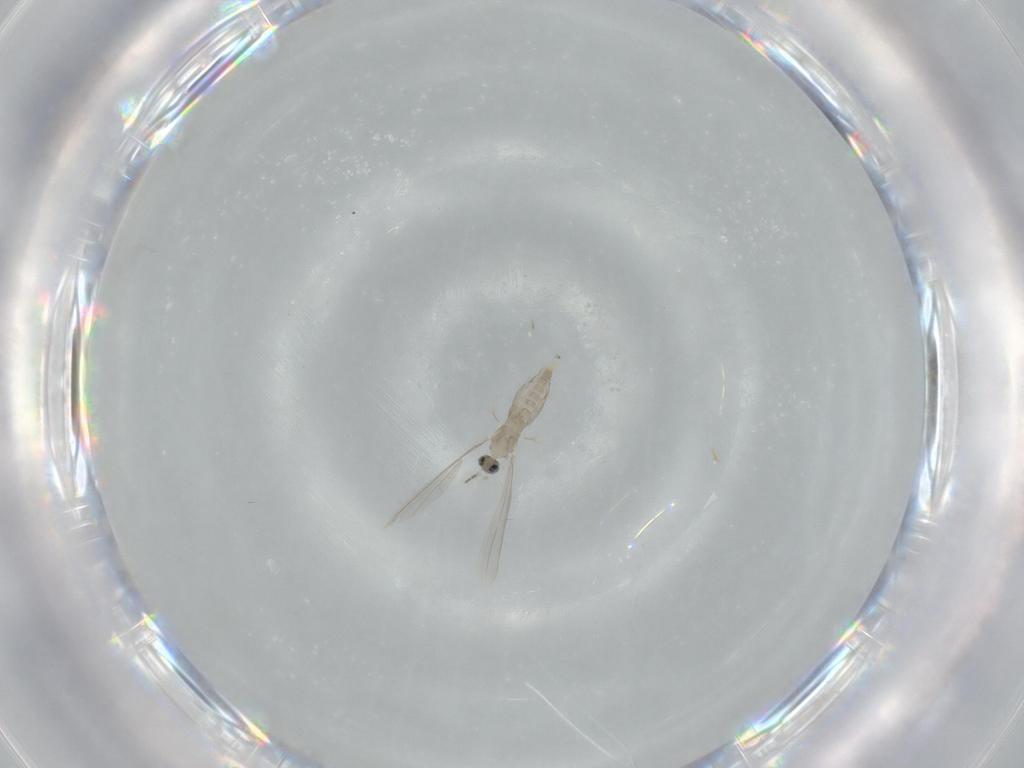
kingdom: Animalia
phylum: Arthropoda
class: Insecta
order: Diptera
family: Cecidomyiidae
